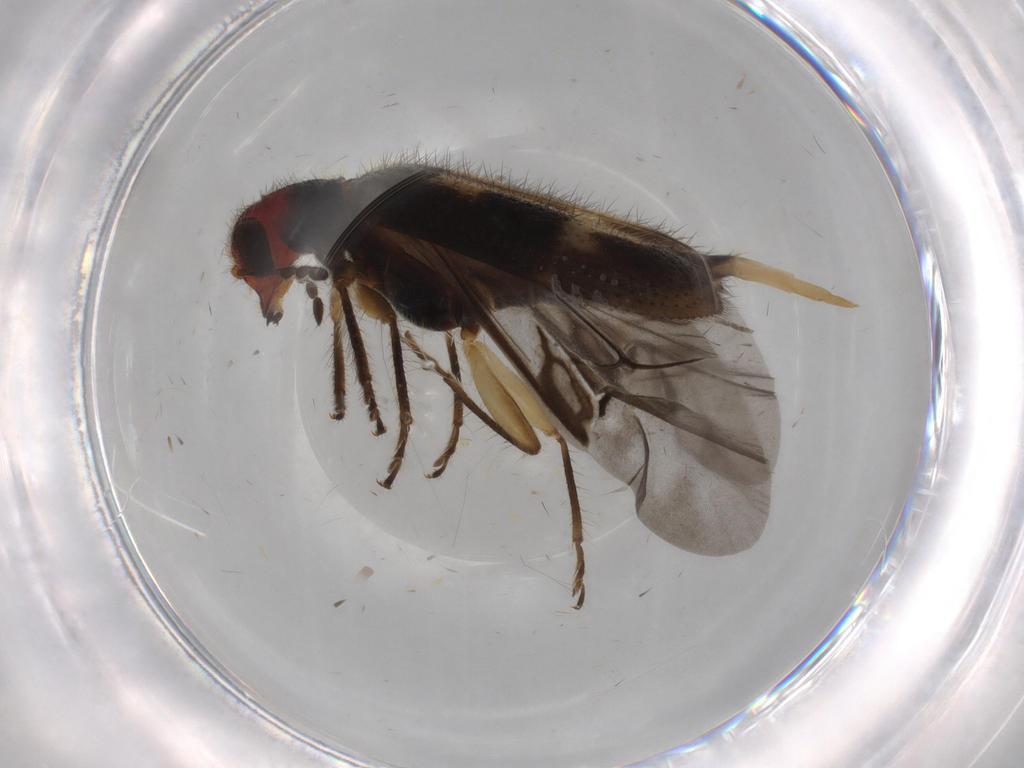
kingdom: Animalia
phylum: Arthropoda
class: Insecta
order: Coleoptera
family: Cleridae
